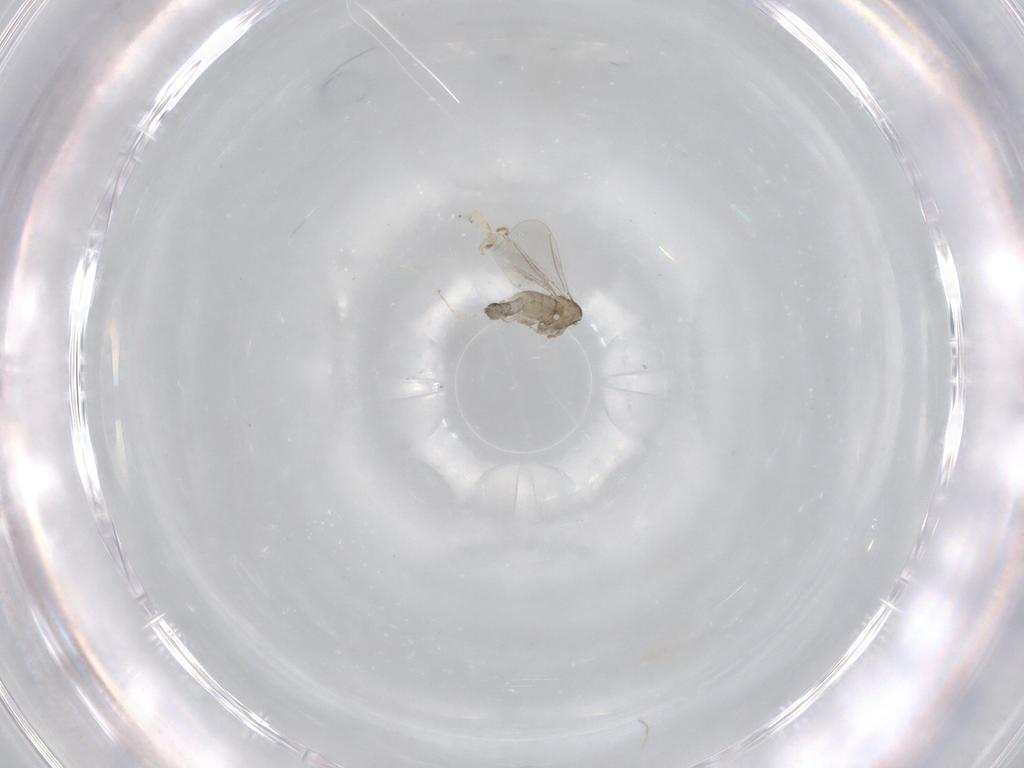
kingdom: Animalia
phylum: Arthropoda
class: Insecta
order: Diptera
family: Cecidomyiidae
